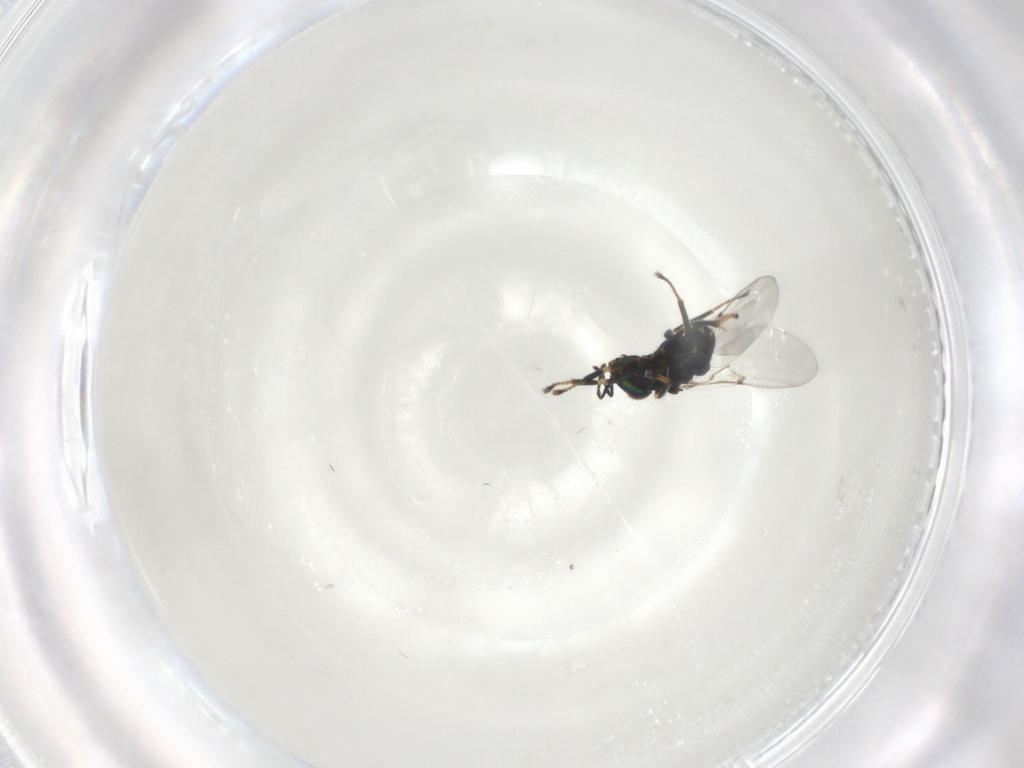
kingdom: Animalia
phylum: Arthropoda
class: Insecta
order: Hymenoptera
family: Encyrtidae
